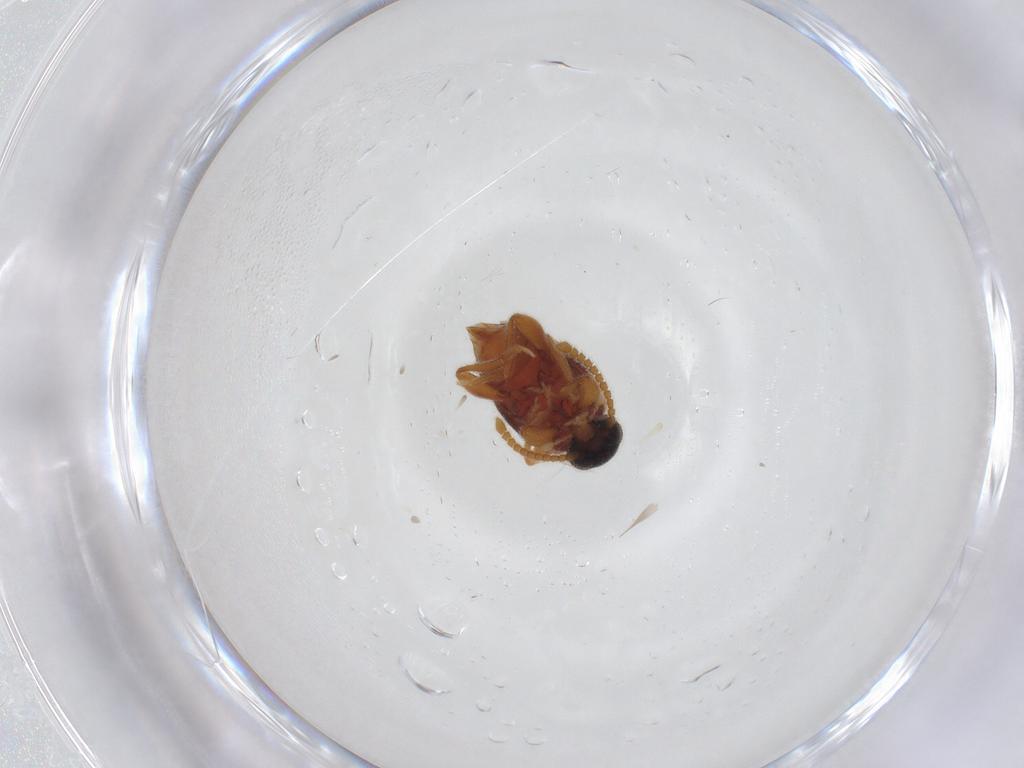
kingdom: Animalia
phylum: Arthropoda
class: Insecta
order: Coleoptera
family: Aderidae
